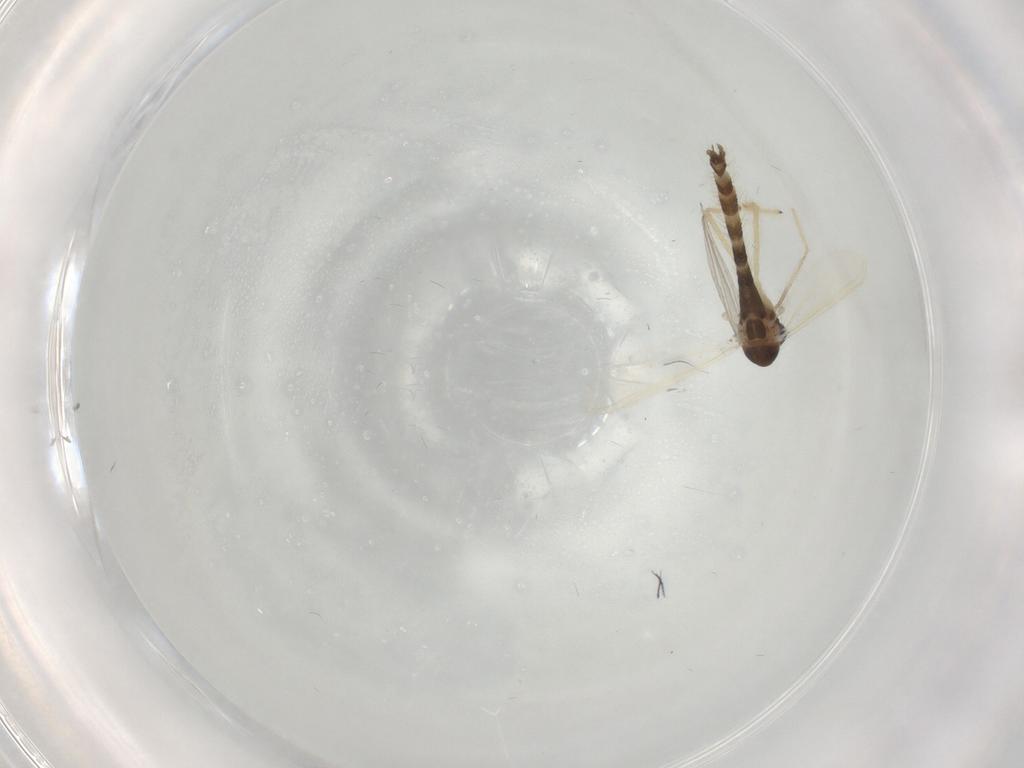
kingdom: Animalia
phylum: Arthropoda
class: Insecta
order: Diptera
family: Chironomidae
